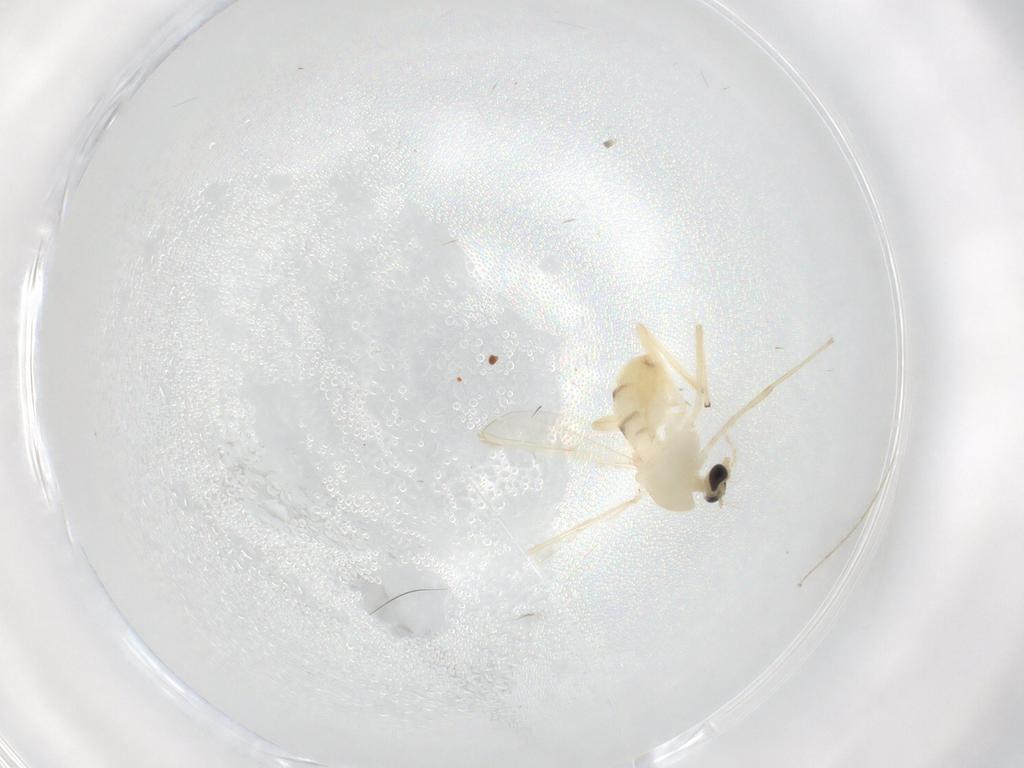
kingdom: Animalia
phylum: Arthropoda
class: Insecta
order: Diptera
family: Chironomidae
